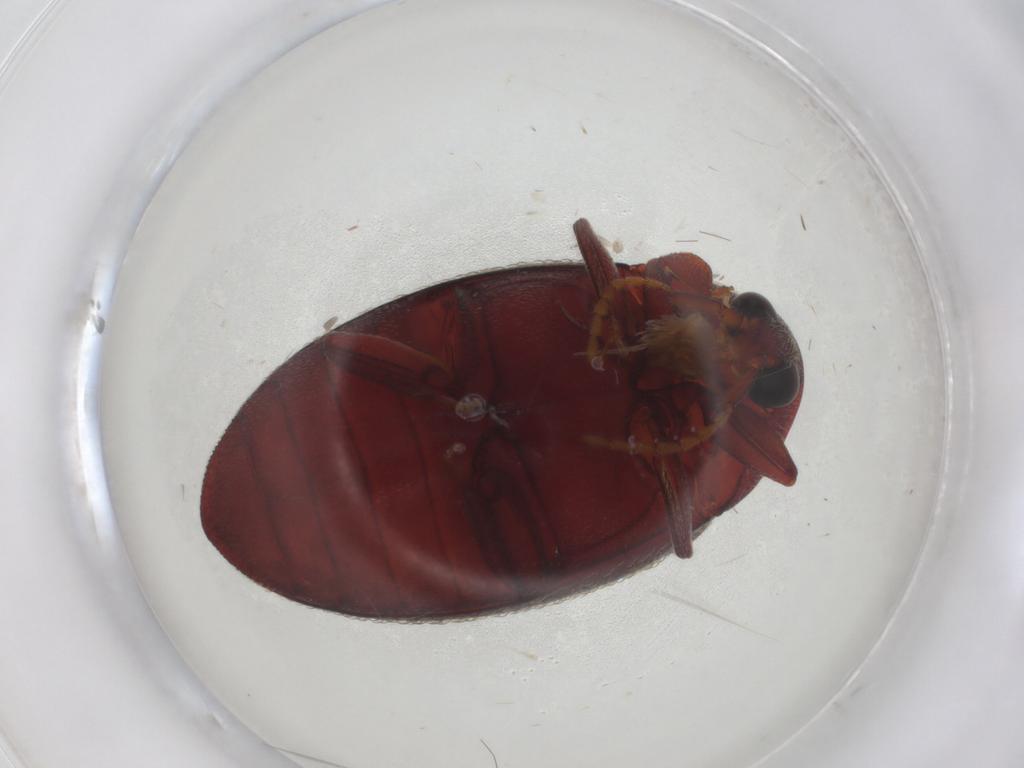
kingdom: Animalia
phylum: Arthropoda
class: Insecta
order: Coleoptera
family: Chelonariidae
